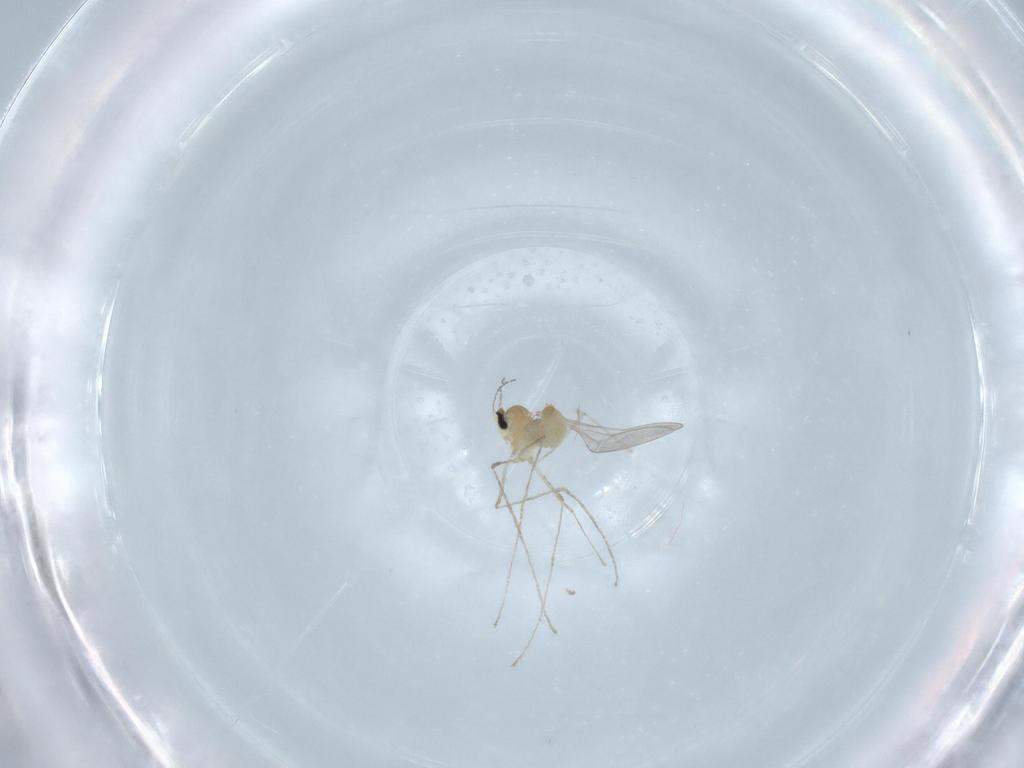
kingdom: Animalia
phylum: Arthropoda
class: Insecta
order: Diptera
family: Cecidomyiidae
